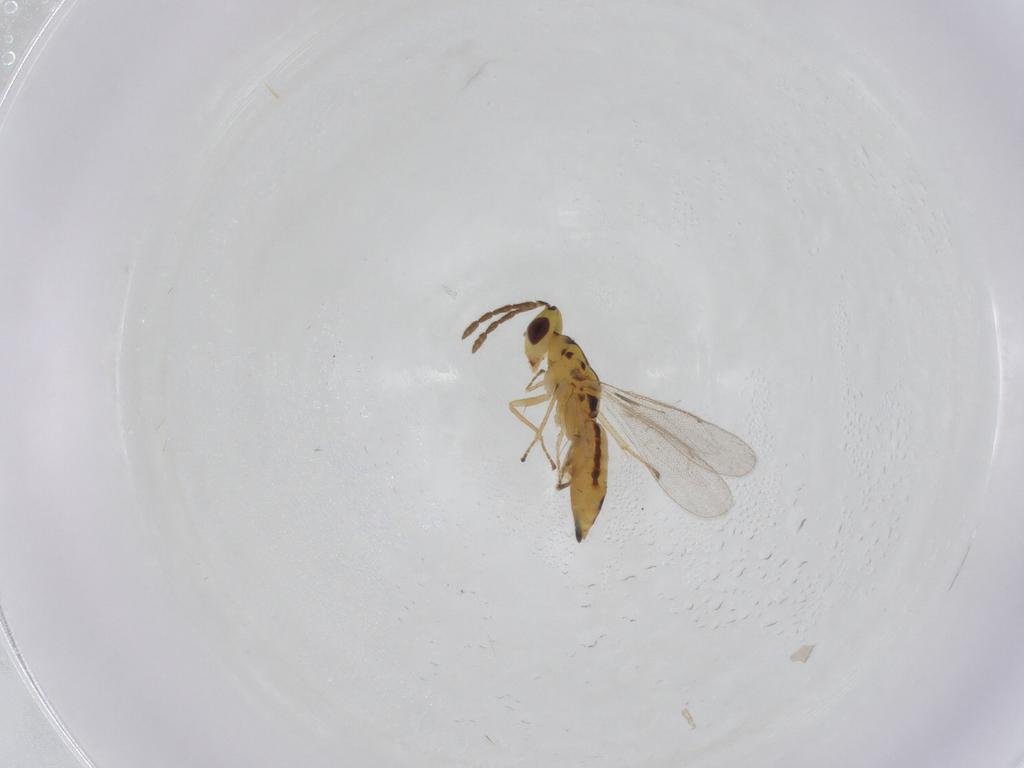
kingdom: Animalia
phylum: Arthropoda
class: Insecta
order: Hymenoptera
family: Eulophidae
